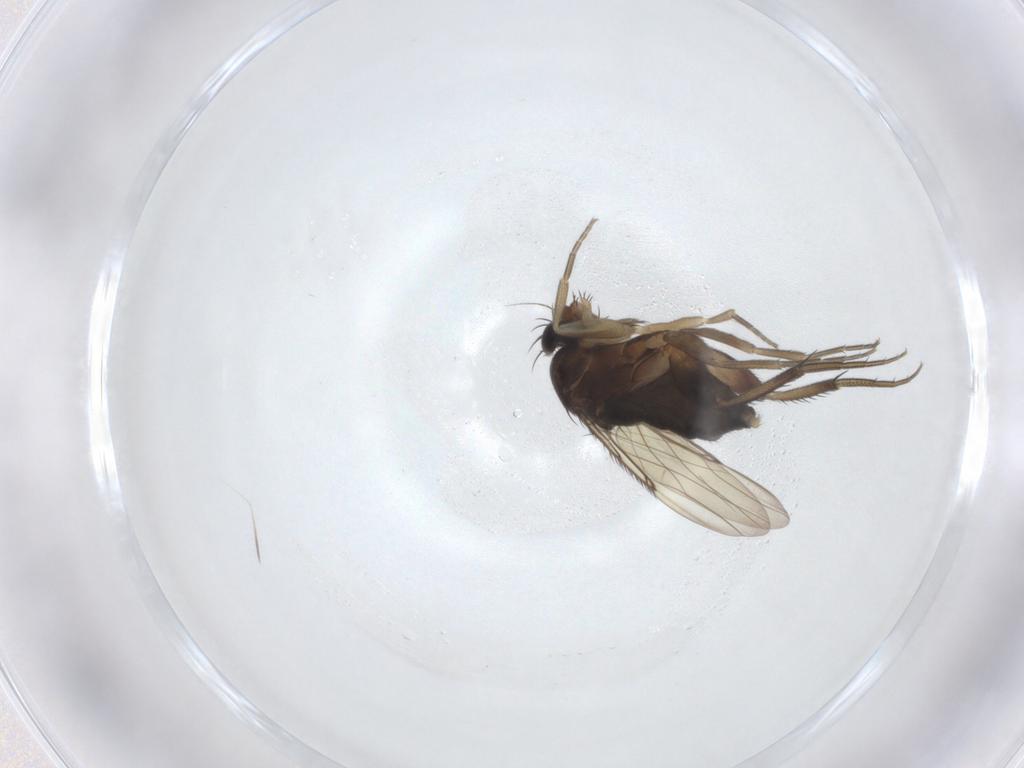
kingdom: Animalia
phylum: Arthropoda
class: Insecta
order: Diptera
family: Phoridae
